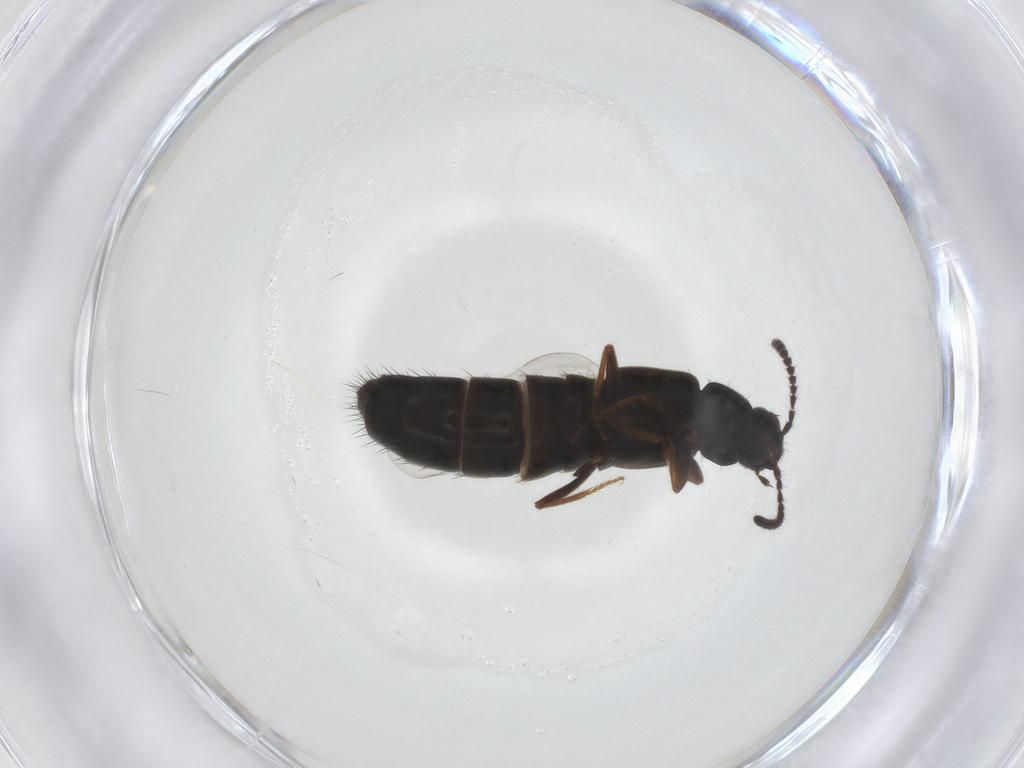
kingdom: Animalia
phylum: Arthropoda
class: Insecta
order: Coleoptera
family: Staphylinidae
